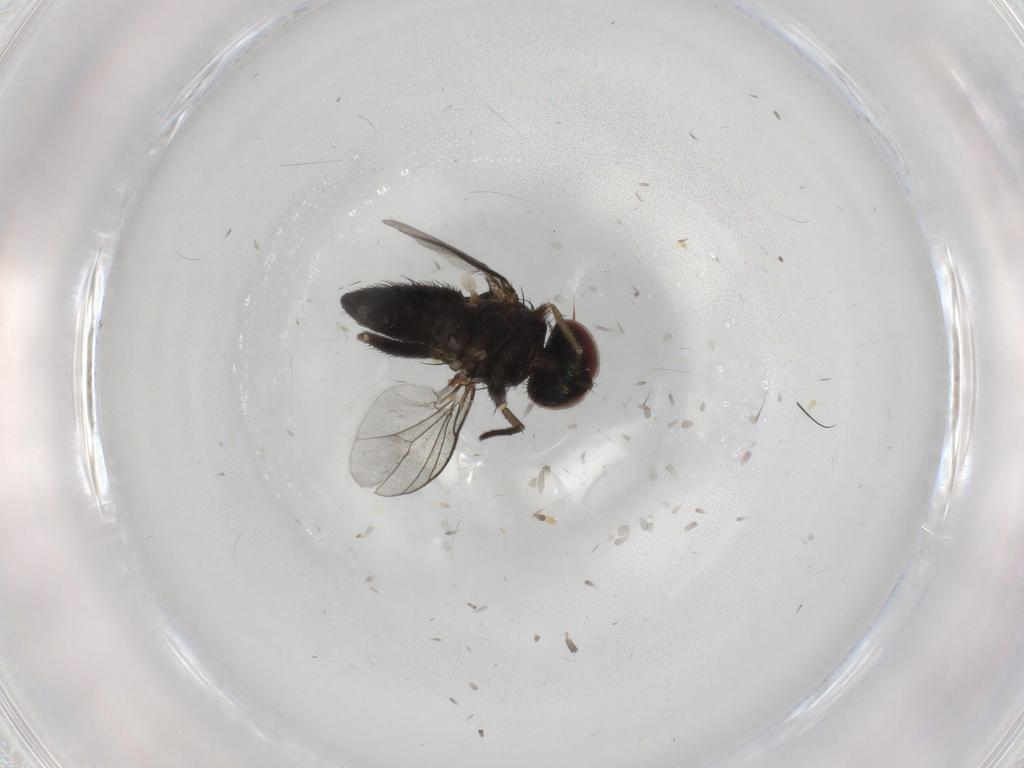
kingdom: Animalia
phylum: Arthropoda
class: Insecta
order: Diptera
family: Dolichopodidae
